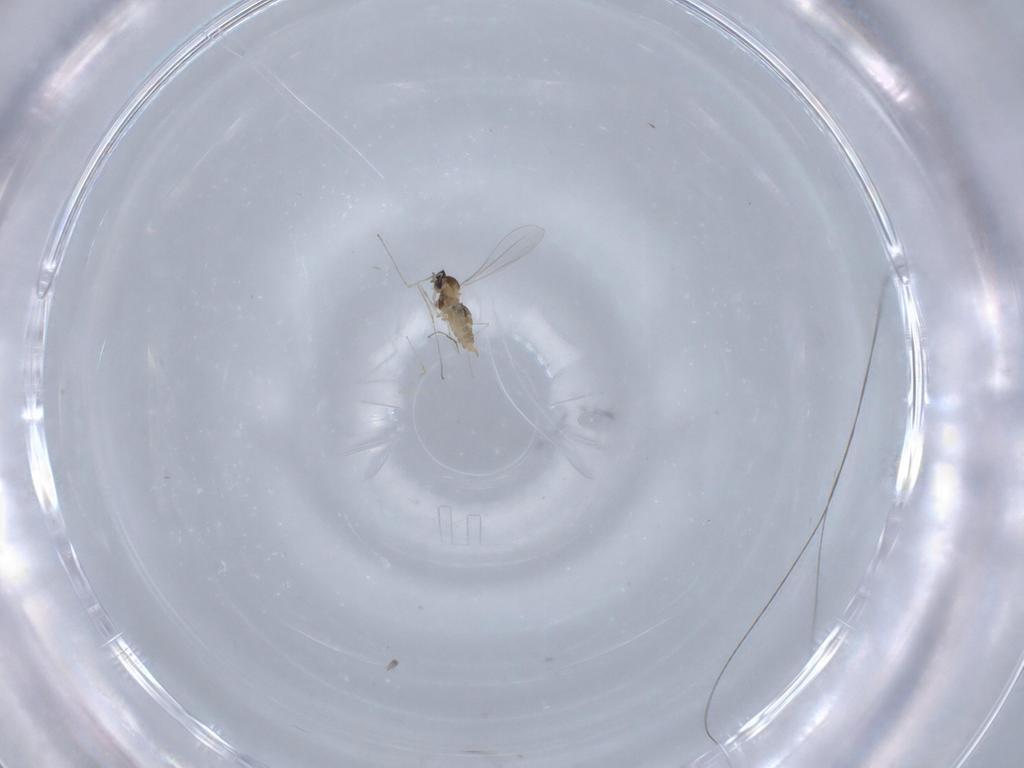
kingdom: Animalia
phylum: Arthropoda
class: Insecta
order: Diptera
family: Cecidomyiidae
